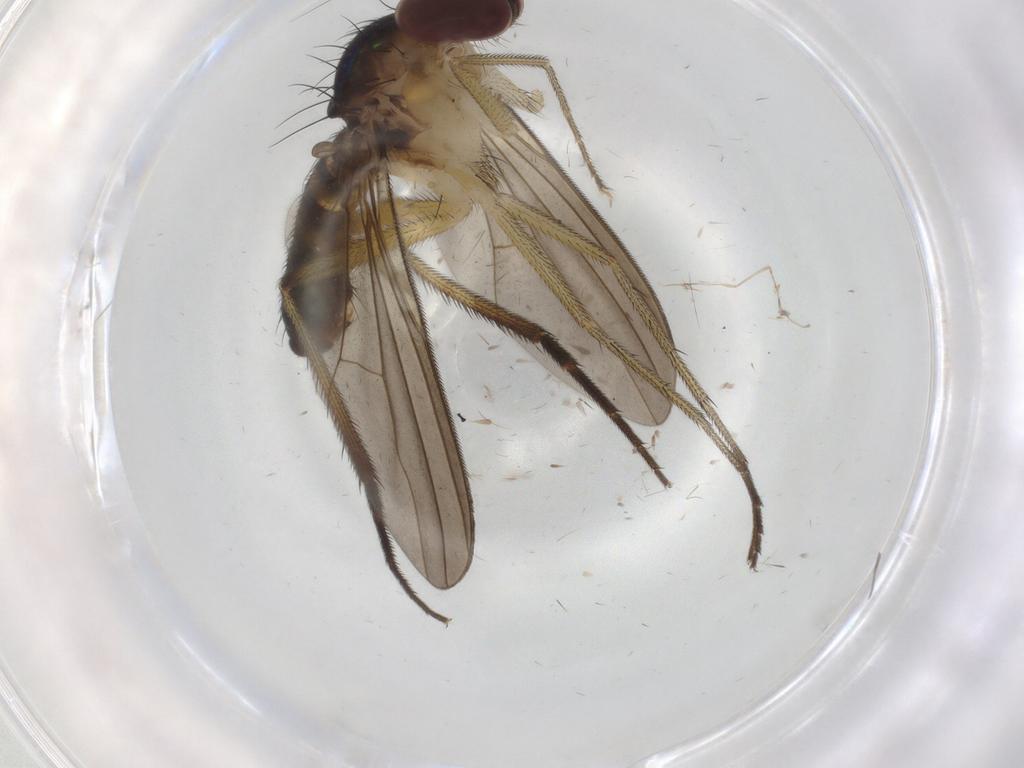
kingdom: Animalia
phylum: Arthropoda
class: Insecta
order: Diptera
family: Dolichopodidae
